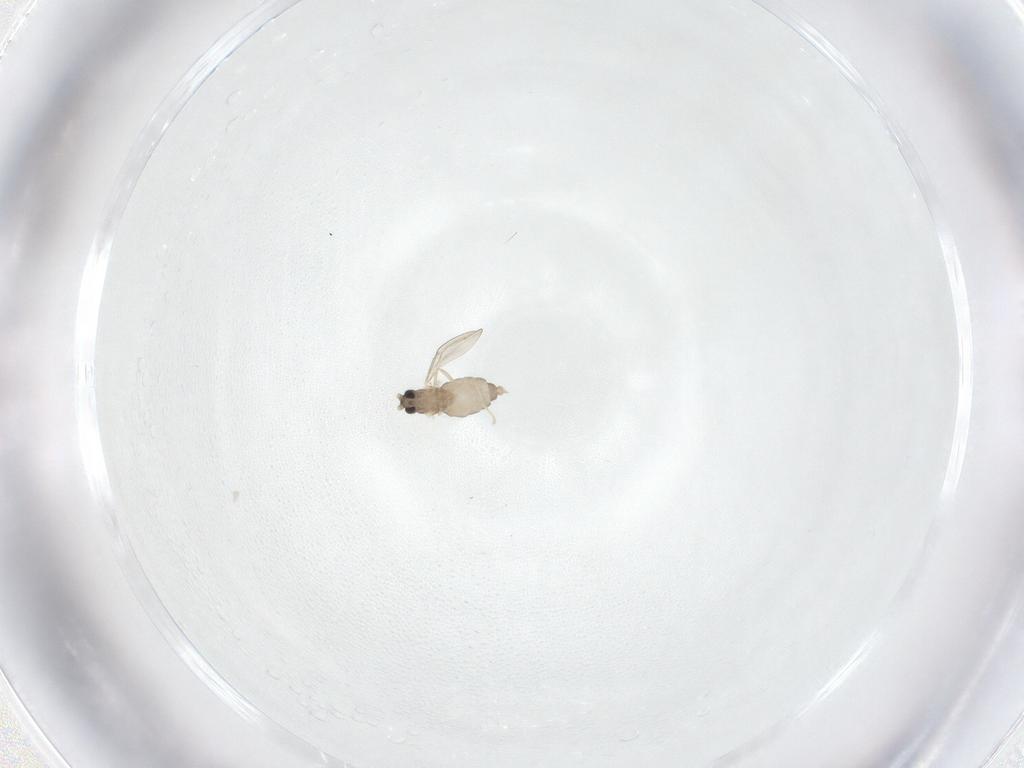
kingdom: Animalia
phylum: Arthropoda
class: Insecta
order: Diptera
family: Cecidomyiidae
